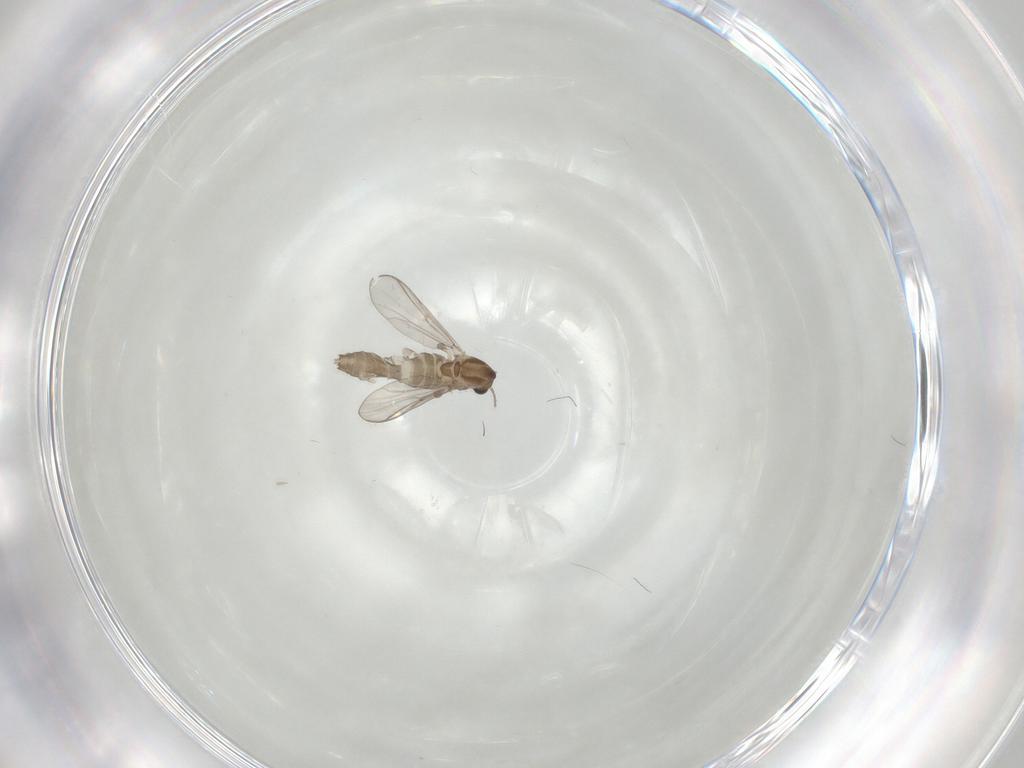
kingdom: Animalia
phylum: Arthropoda
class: Insecta
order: Diptera
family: Chironomidae
